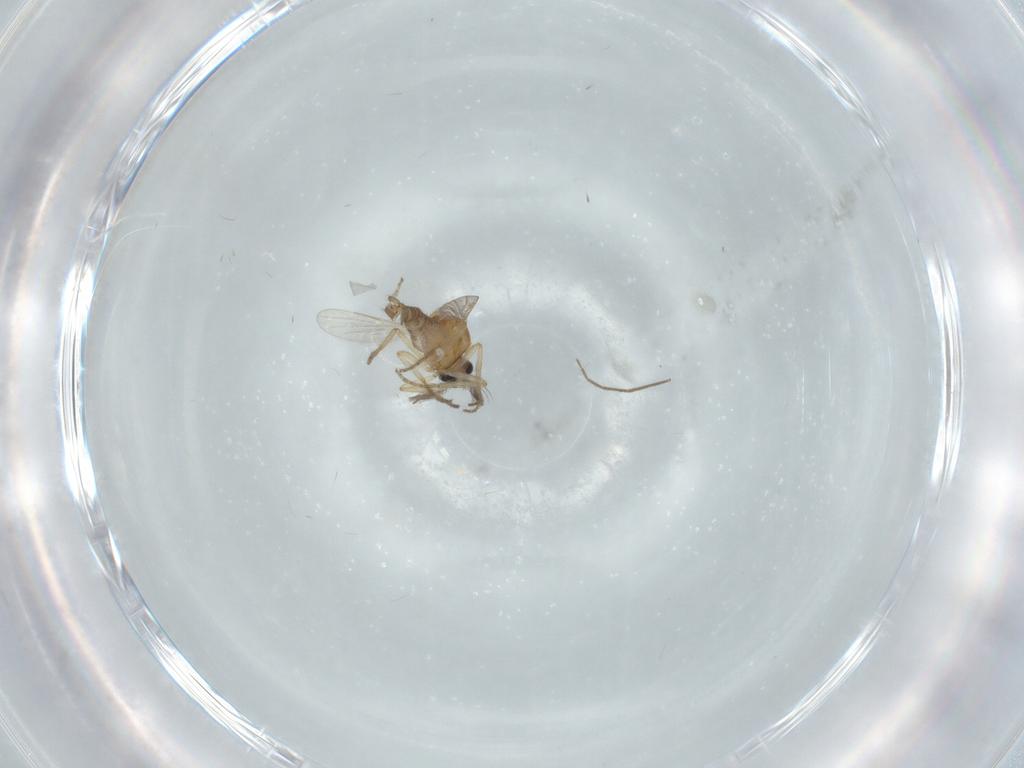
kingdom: Animalia
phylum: Arthropoda
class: Insecta
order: Diptera
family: Chironomidae
